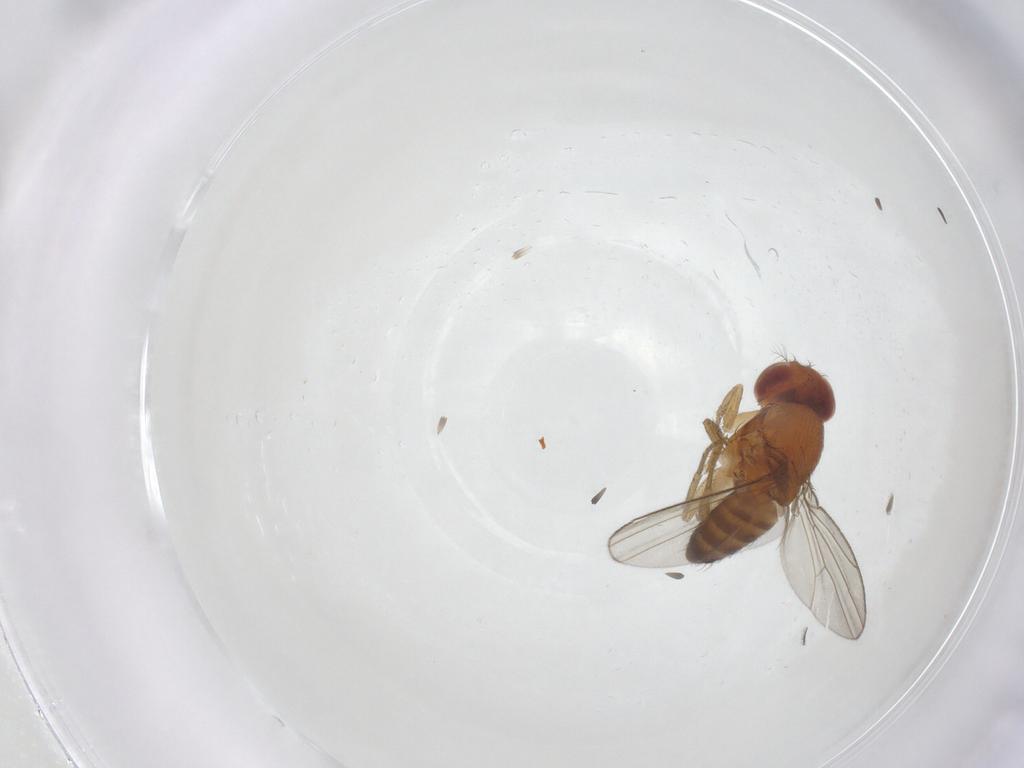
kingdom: Animalia
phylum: Arthropoda
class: Insecta
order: Diptera
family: Drosophilidae
